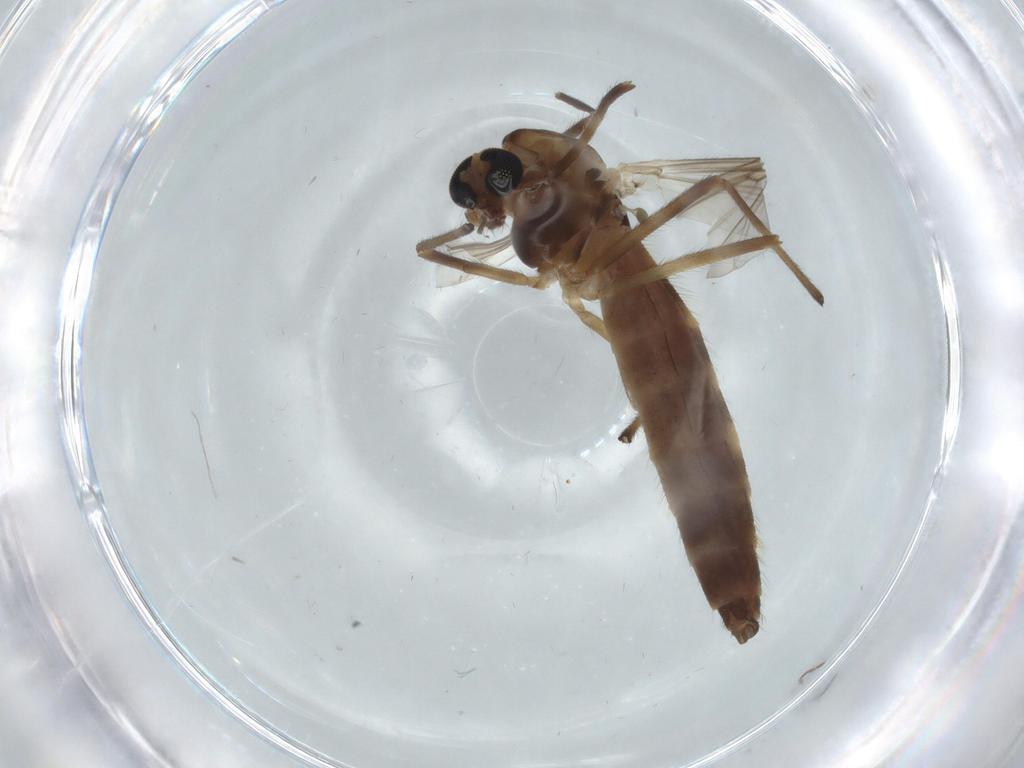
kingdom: Animalia
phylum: Arthropoda
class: Insecta
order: Diptera
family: Chironomidae
